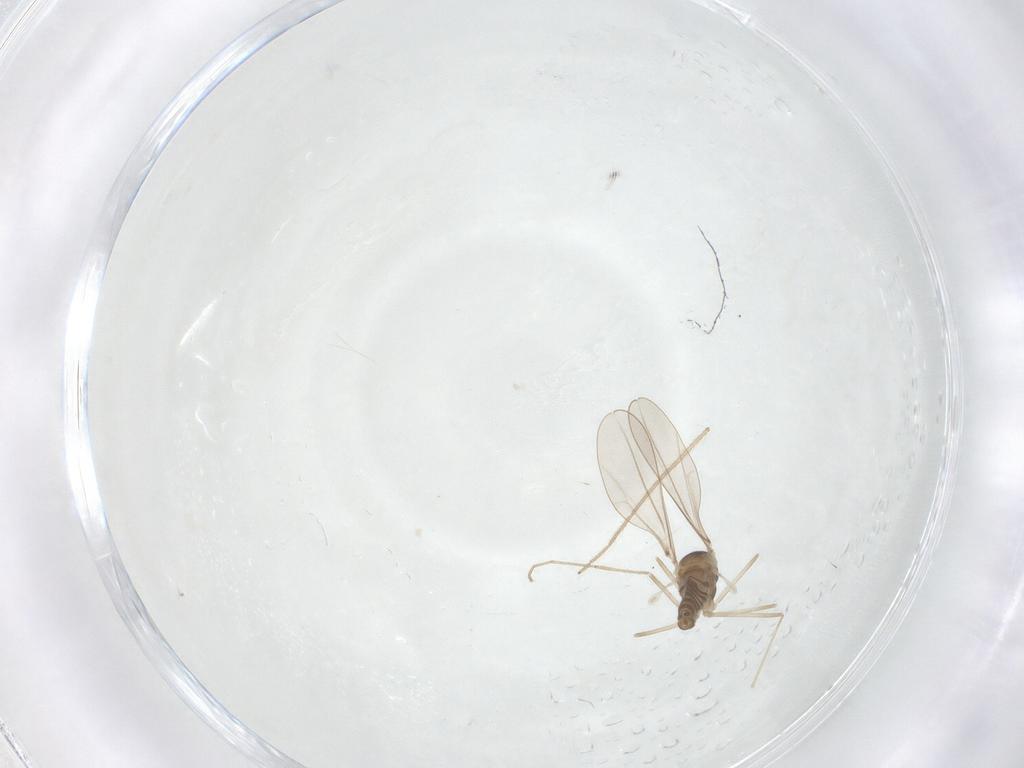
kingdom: Animalia
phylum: Arthropoda
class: Insecta
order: Diptera
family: Cecidomyiidae
